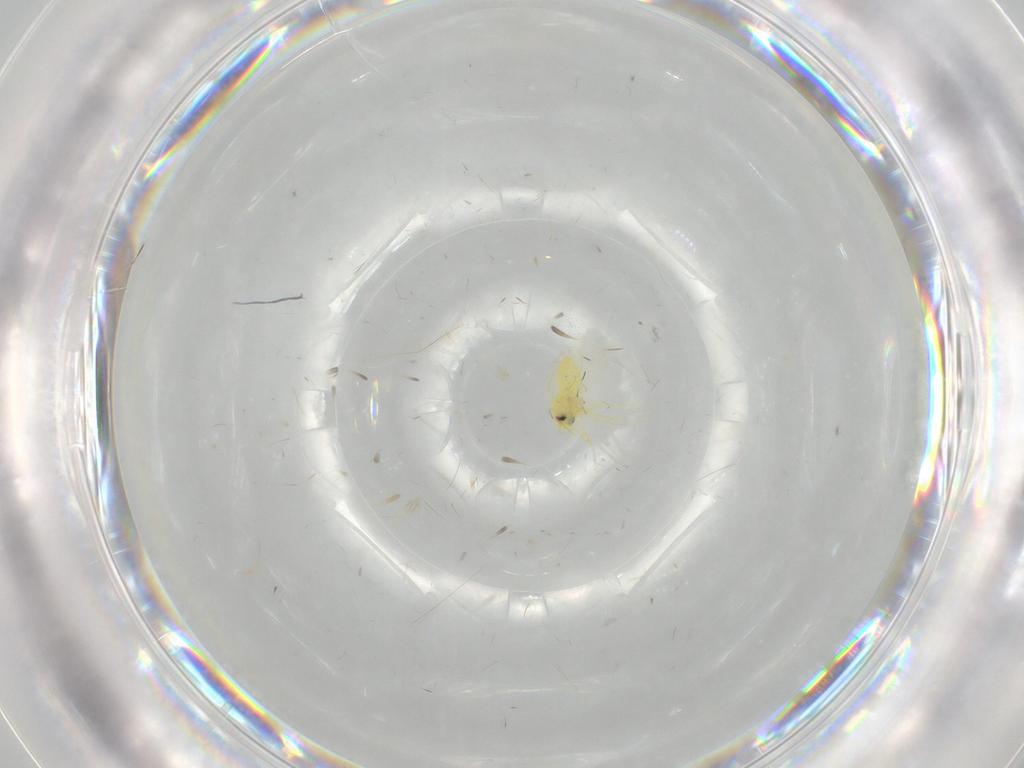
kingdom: Animalia
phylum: Arthropoda
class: Insecta
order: Hemiptera
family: Aleyrodidae
